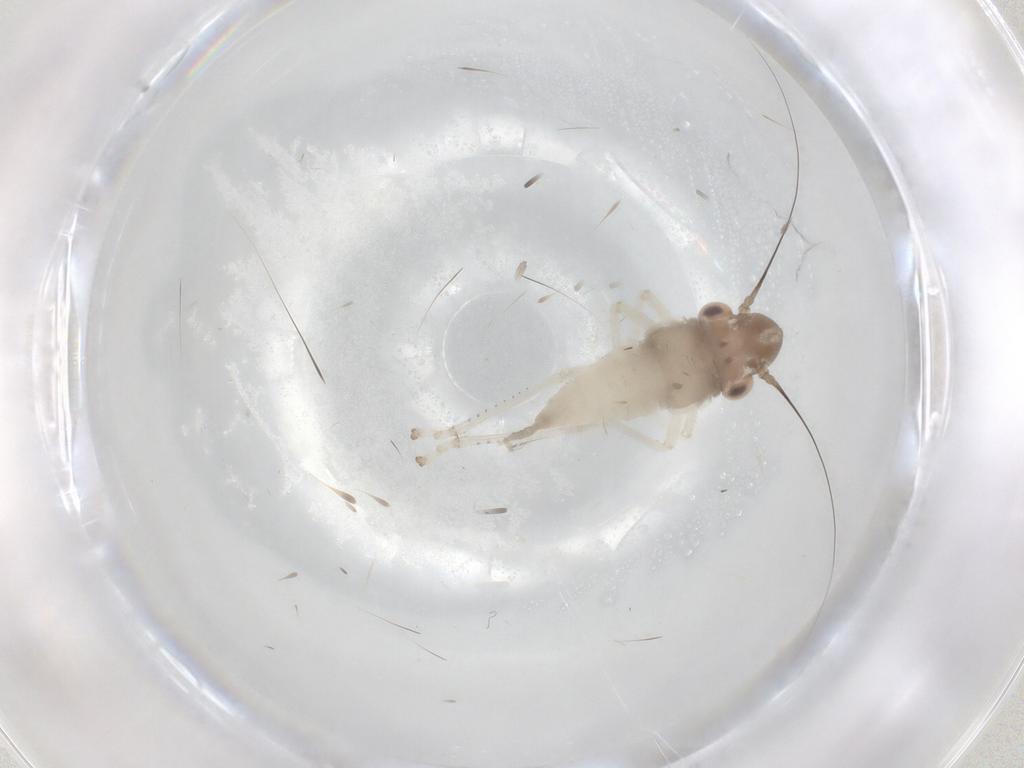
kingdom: Animalia
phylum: Arthropoda
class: Insecta
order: Hemiptera
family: Cicadellidae
